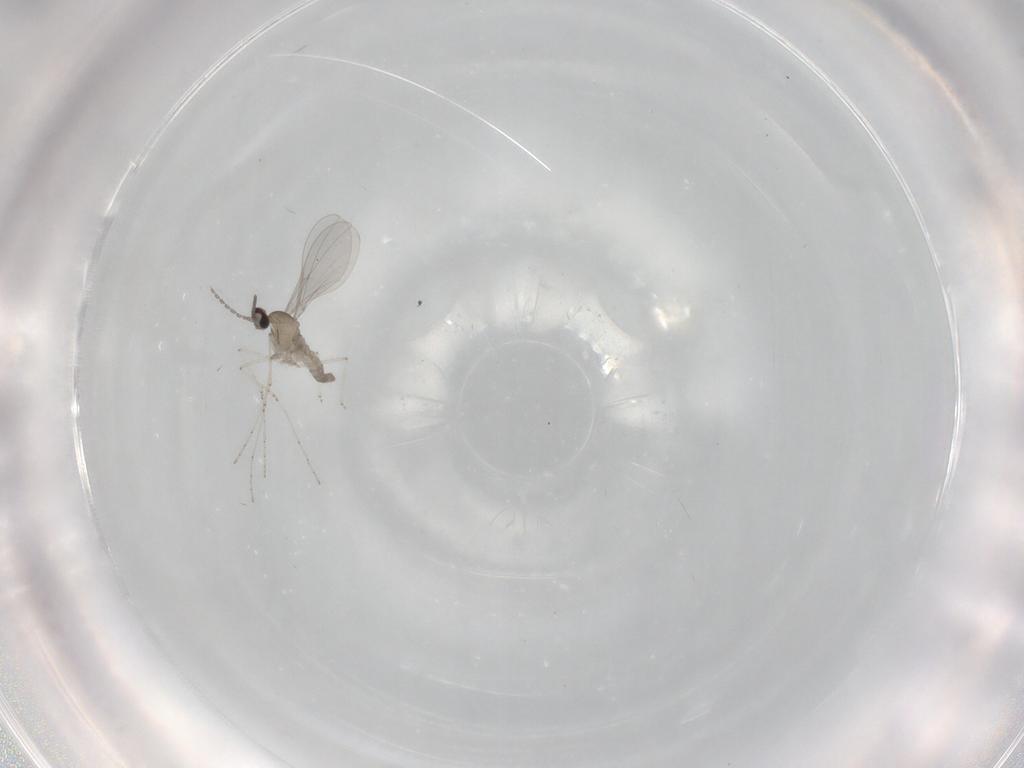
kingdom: Animalia
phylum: Arthropoda
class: Insecta
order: Diptera
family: Cecidomyiidae
